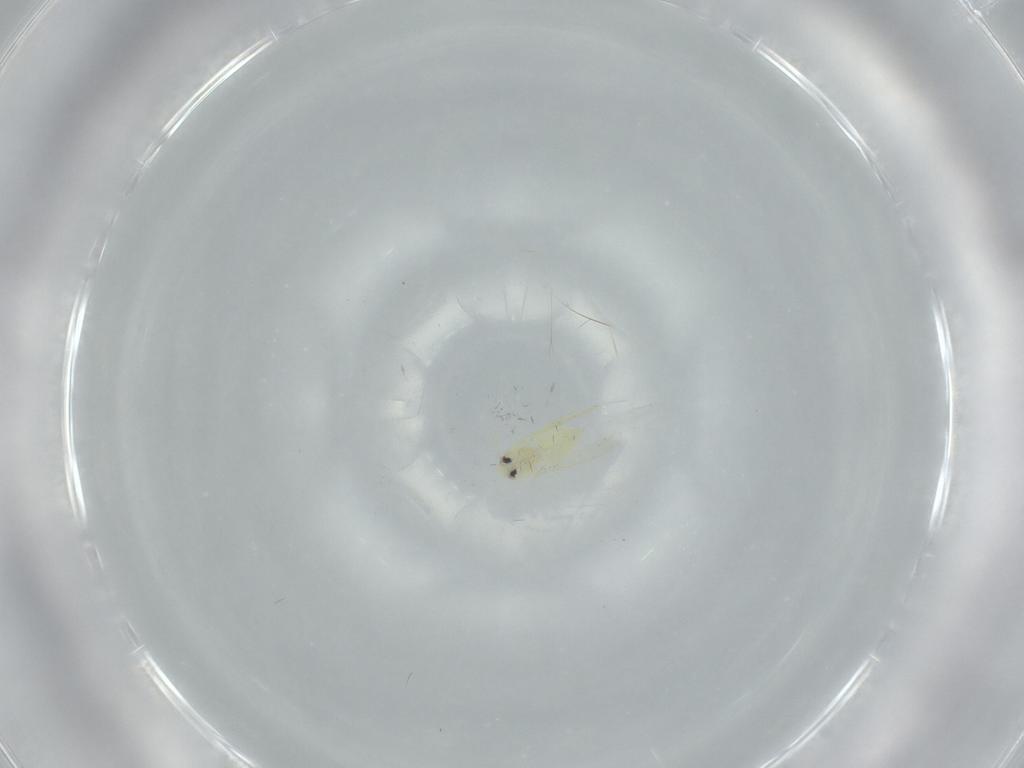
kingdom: Animalia
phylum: Arthropoda
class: Insecta
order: Hemiptera
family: Aleyrodidae
